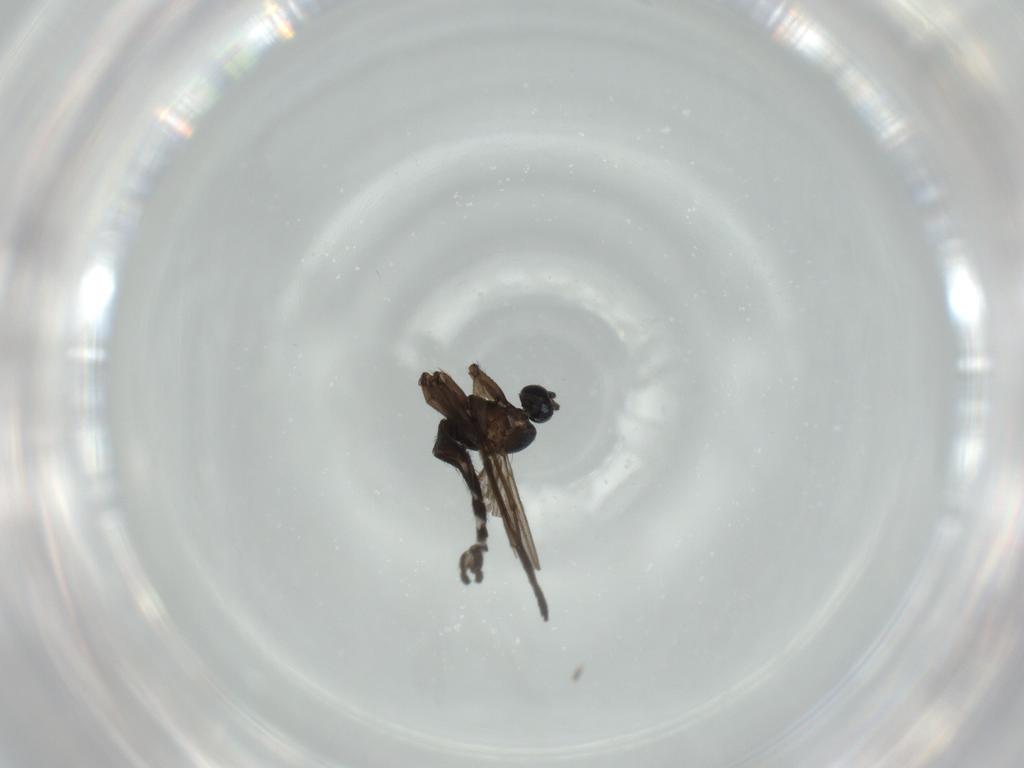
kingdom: Animalia
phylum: Arthropoda
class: Insecta
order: Diptera
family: Sciaridae
